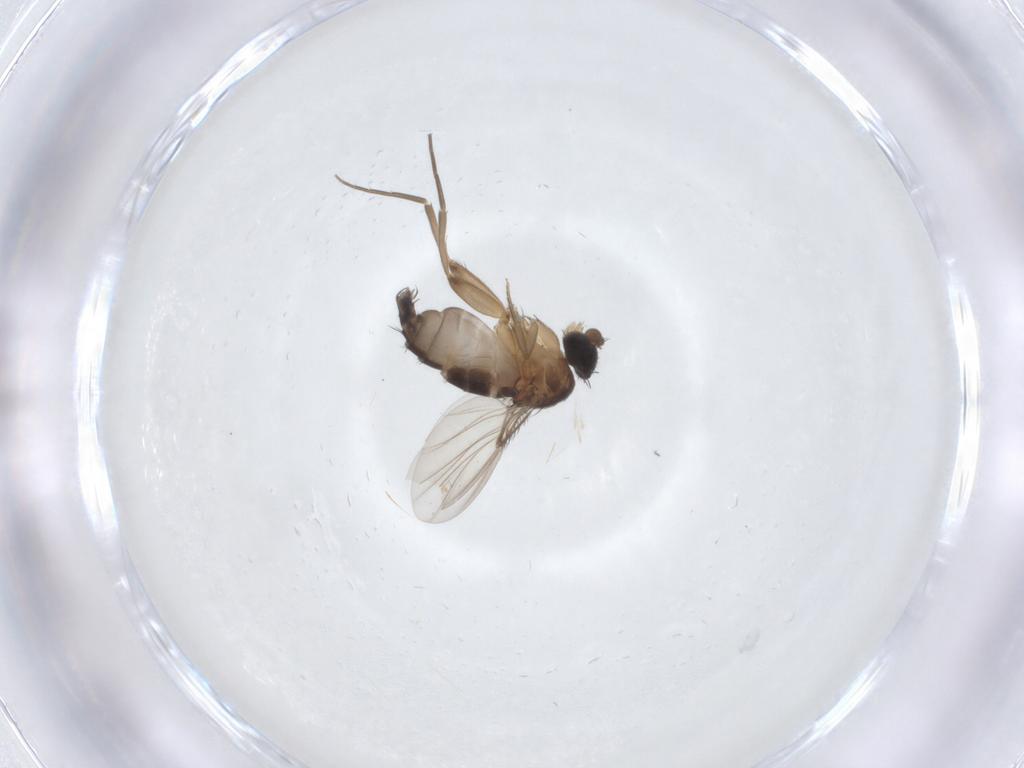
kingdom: Animalia
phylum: Arthropoda
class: Insecta
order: Diptera
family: Phoridae
